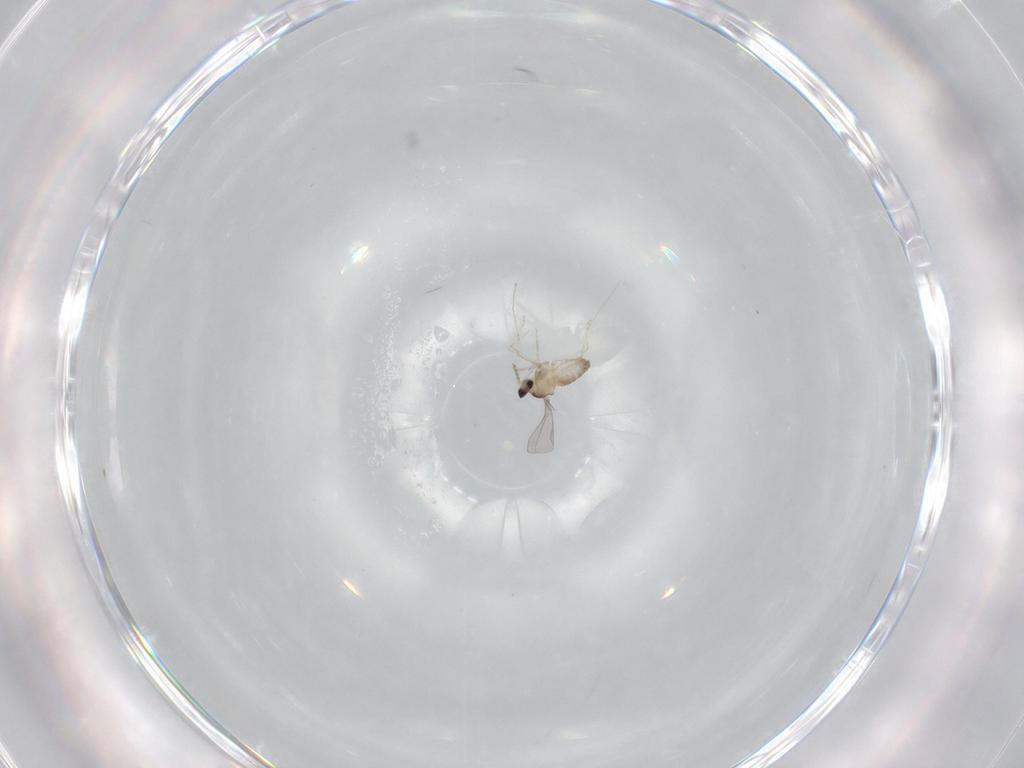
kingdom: Animalia
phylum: Arthropoda
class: Insecta
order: Diptera
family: Cecidomyiidae
